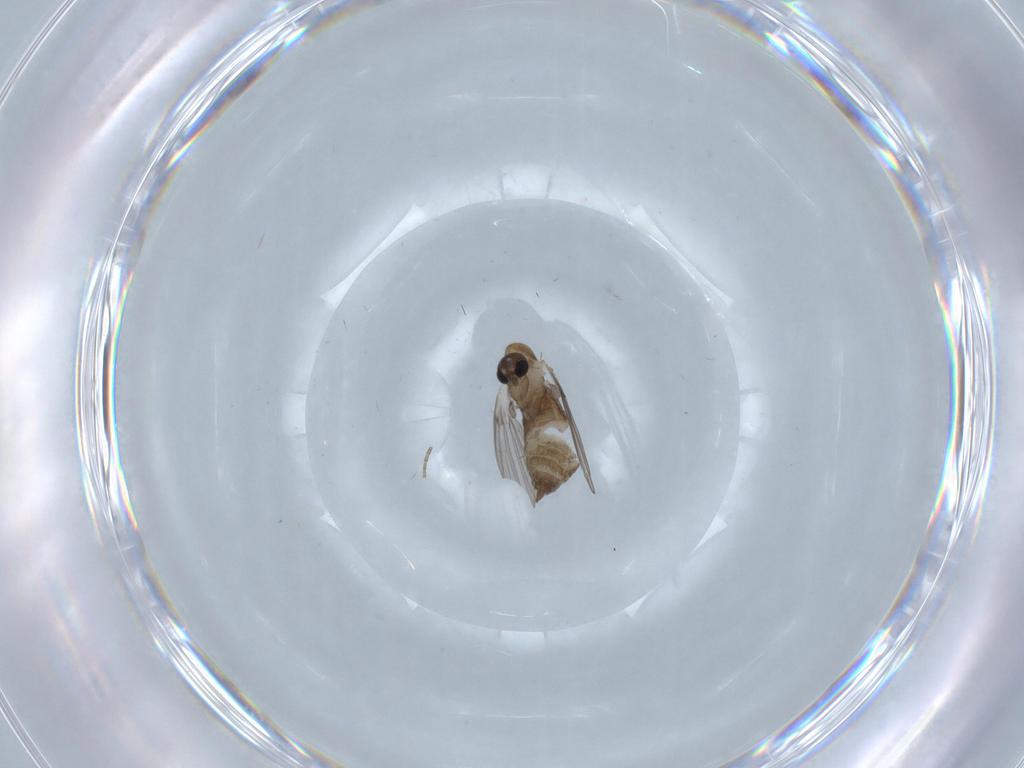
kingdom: Animalia
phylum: Arthropoda
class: Insecta
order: Diptera
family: Phoridae
